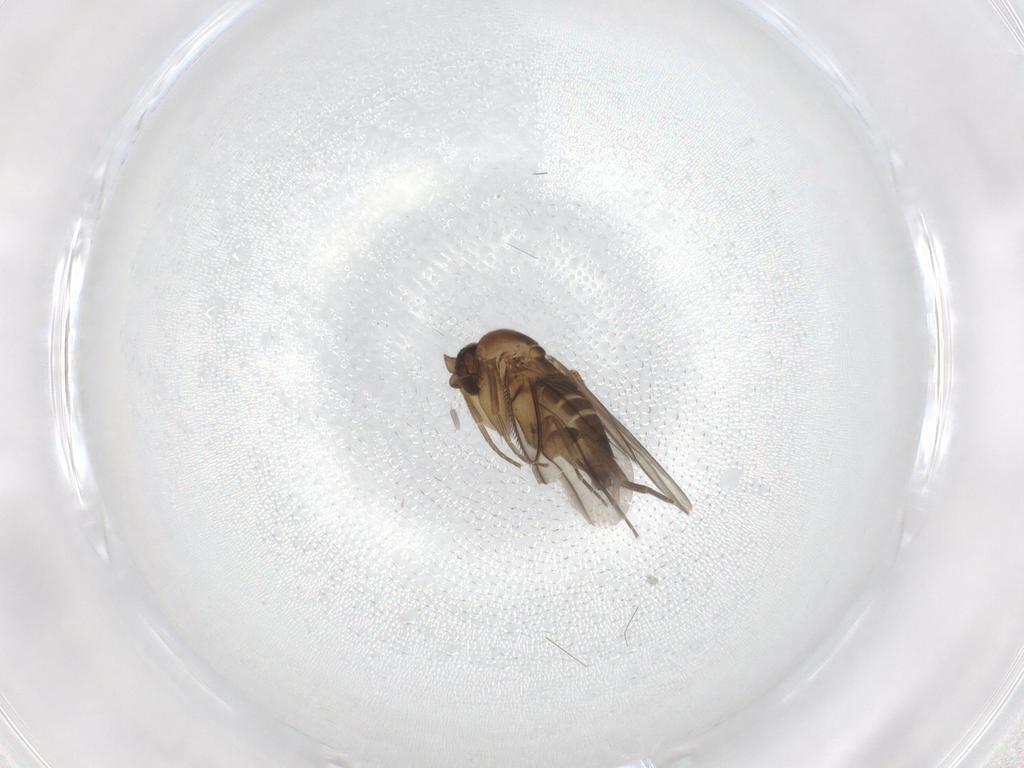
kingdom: Animalia
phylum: Arthropoda
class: Insecta
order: Diptera
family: Phoridae
